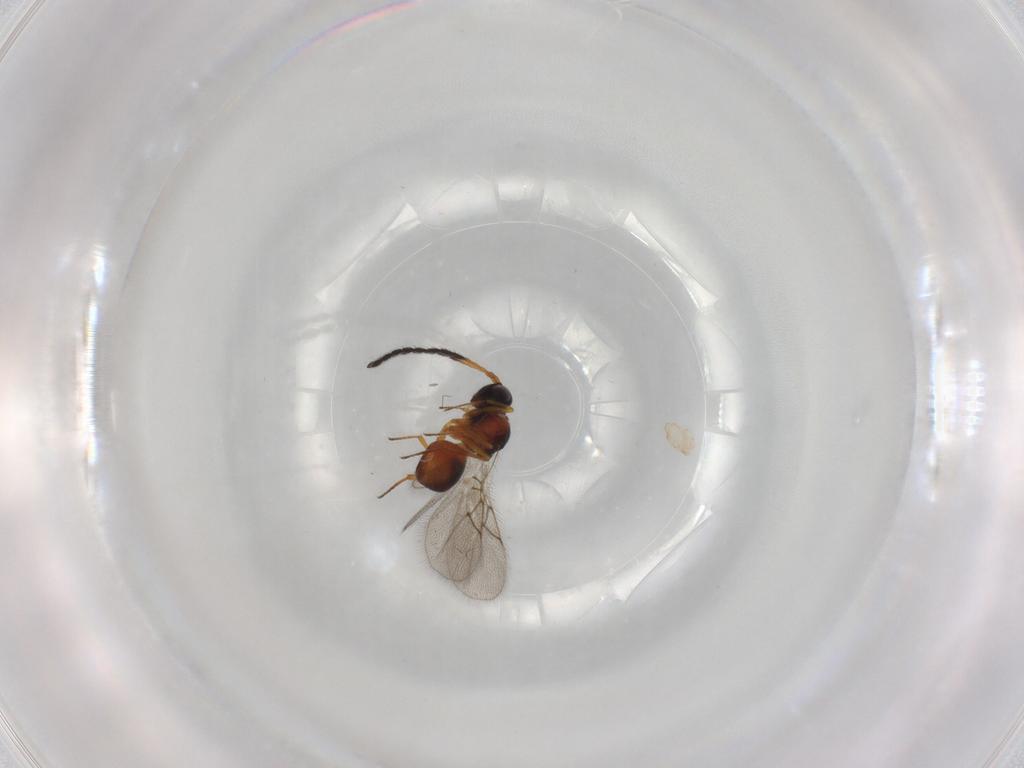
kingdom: Animalia
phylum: Arthropoda
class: Insecta
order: Hymenoptera
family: Figitidae
